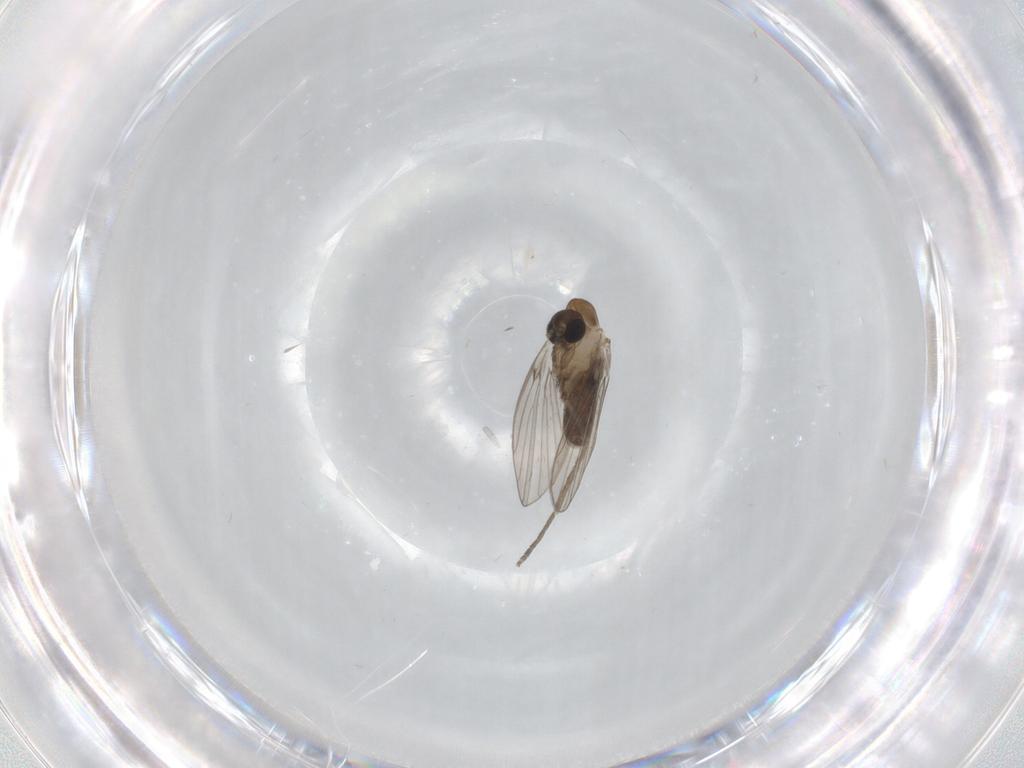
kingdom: Animalia
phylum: Arthropoda
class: Insecta
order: Diptera
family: Psychodidae
